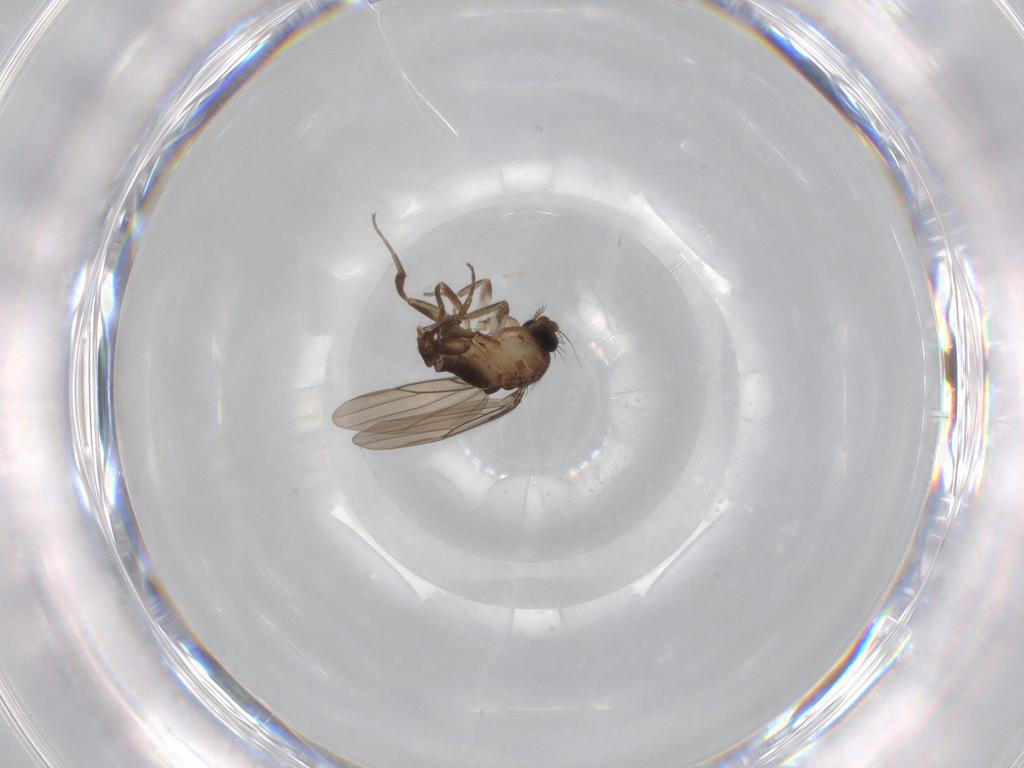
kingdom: Animalia
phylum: Arthropoda
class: Insecta
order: Diptera
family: Phoridae
